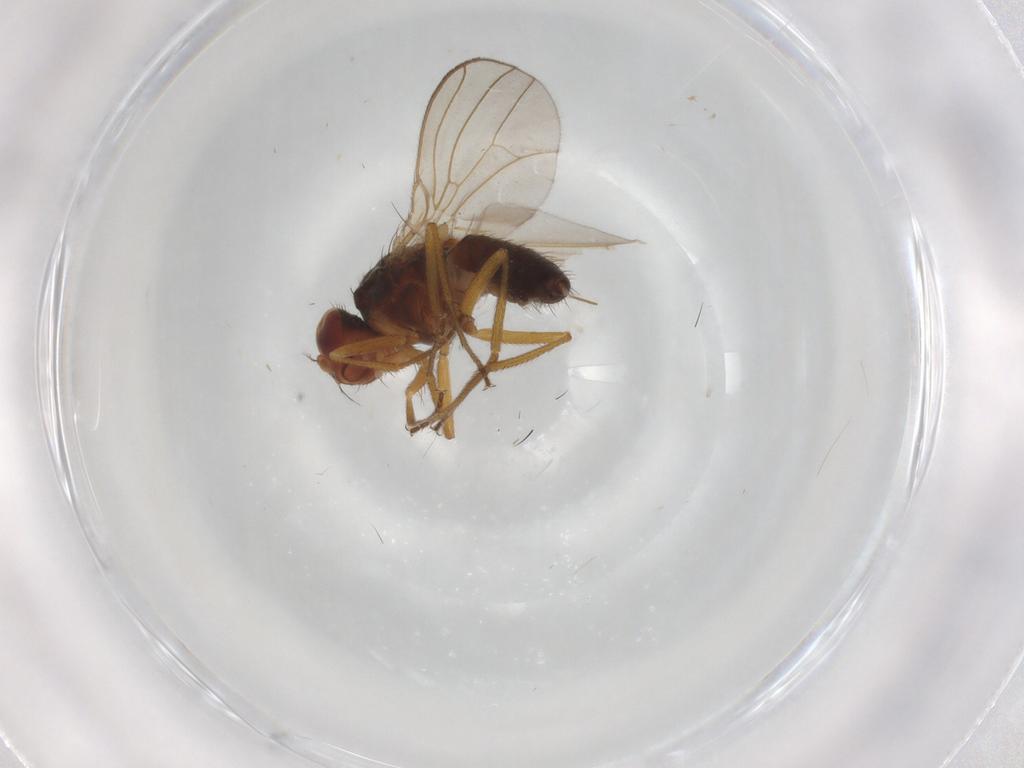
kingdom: Animalia
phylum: Arthropoda
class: Insecta
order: Diptera
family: Drosophilidae
